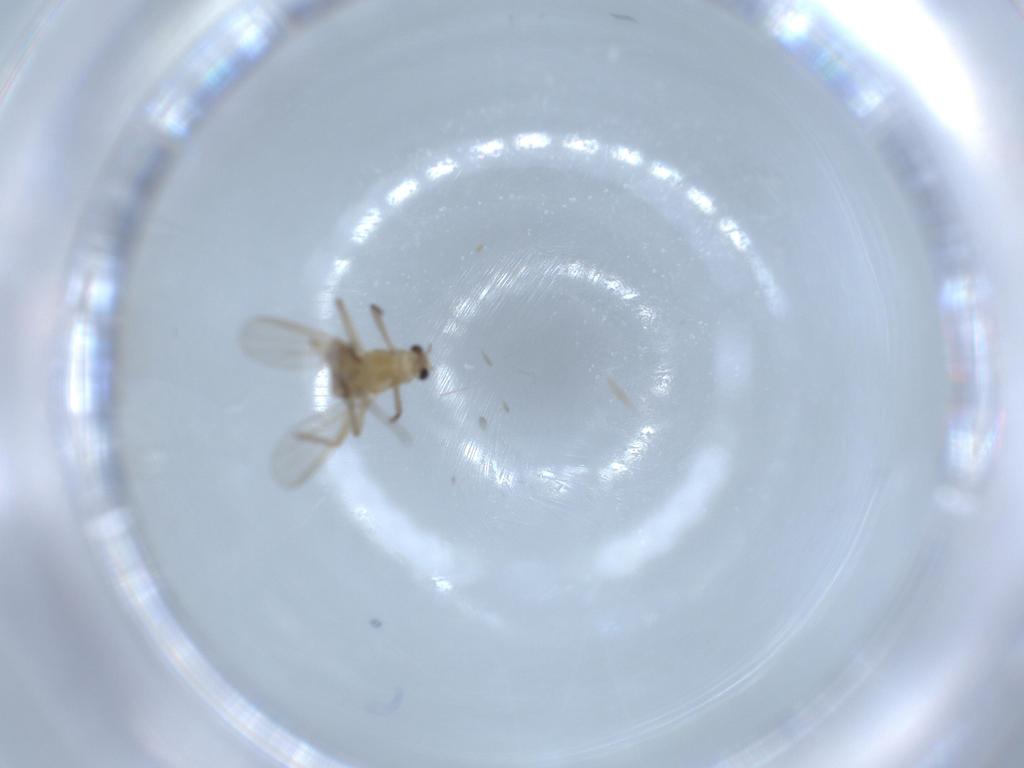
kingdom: Animalia
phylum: Arthropoda
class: Insecta
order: Diptera
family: Chironomidae
